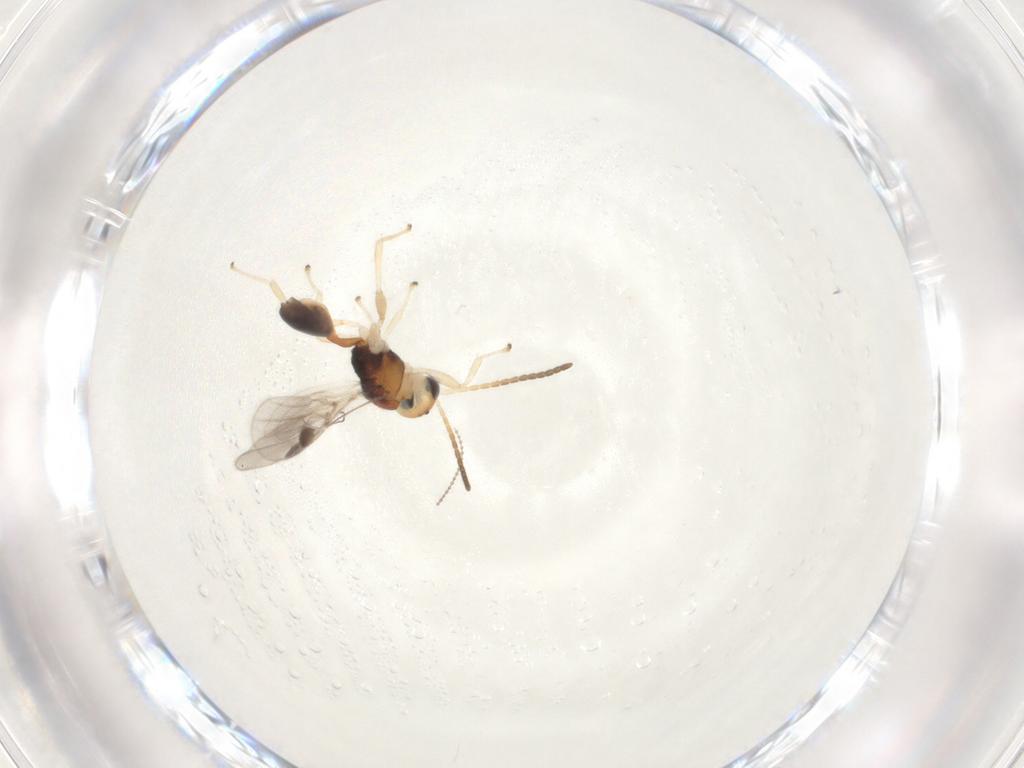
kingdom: Animalia
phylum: Arthropoda
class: Insecta
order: Hymenoptera
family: Braconidae
